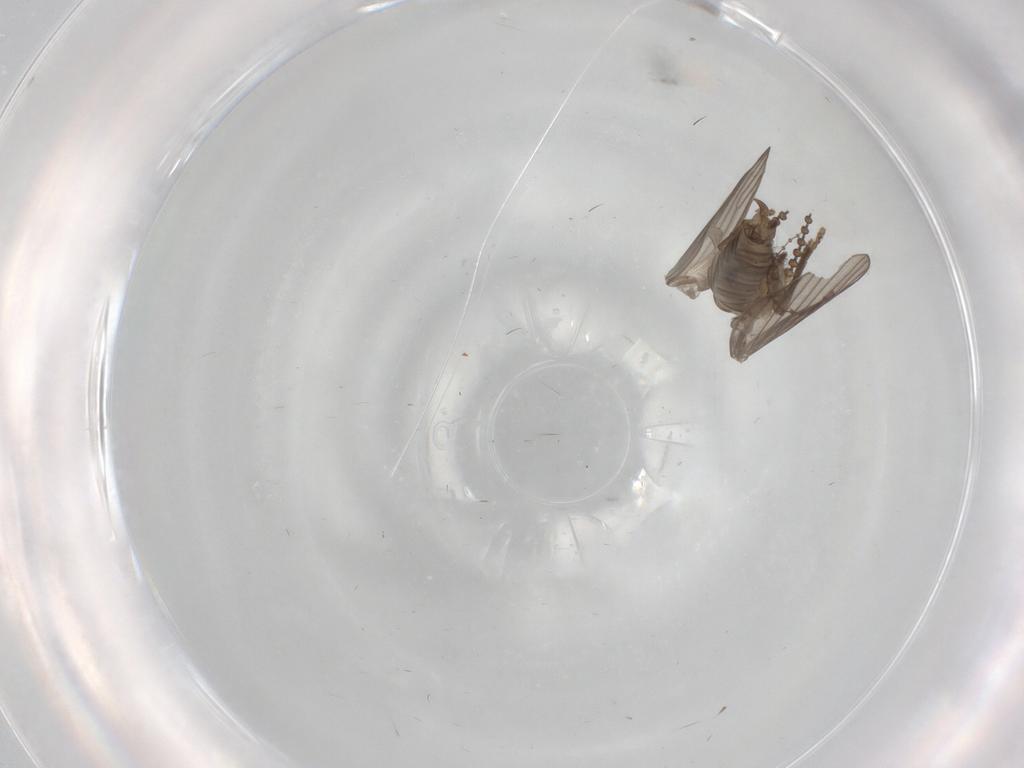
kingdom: Animalia
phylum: Arthropoda
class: Insecta
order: Diptera
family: Psychodidae
